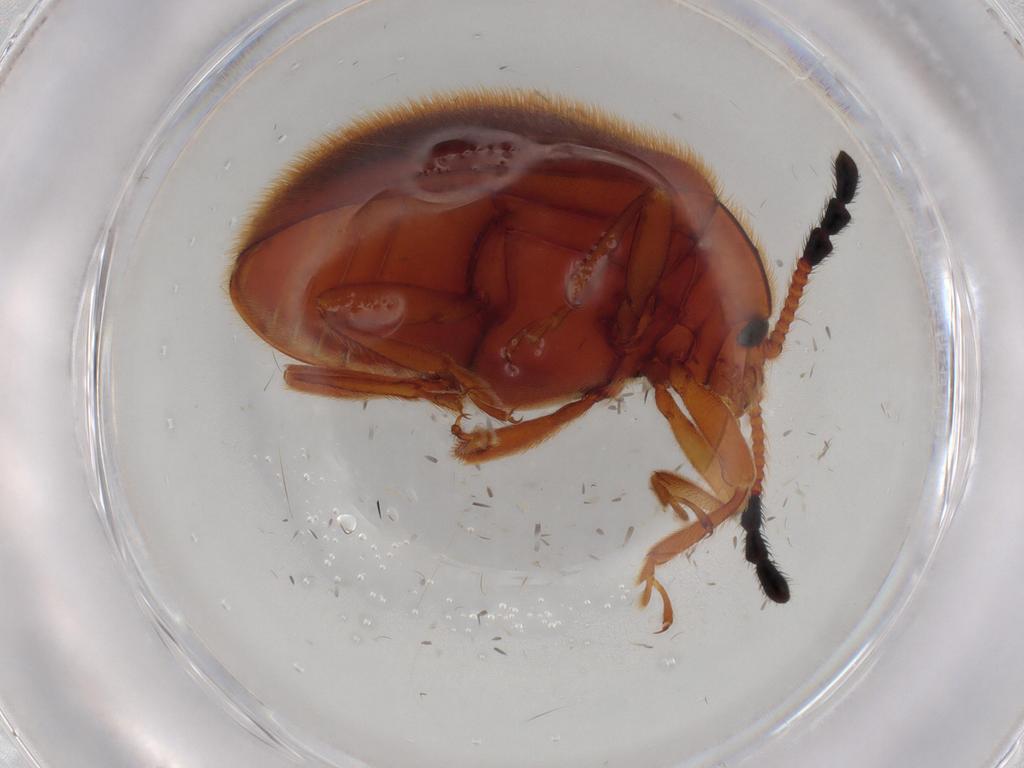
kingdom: Animalia
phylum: Arthropoda
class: Insecta
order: Coleoptera
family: Endomychidae
